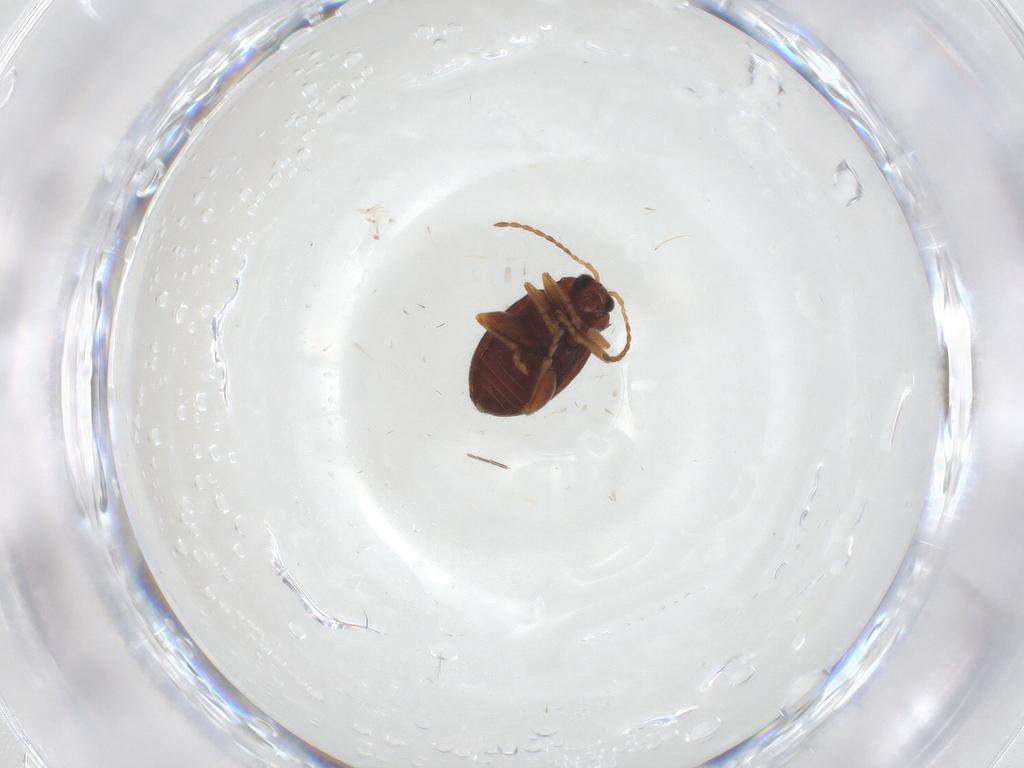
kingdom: Animalia
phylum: Arthropoda
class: Insecta
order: Coleoptera
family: Chrysomelidae
